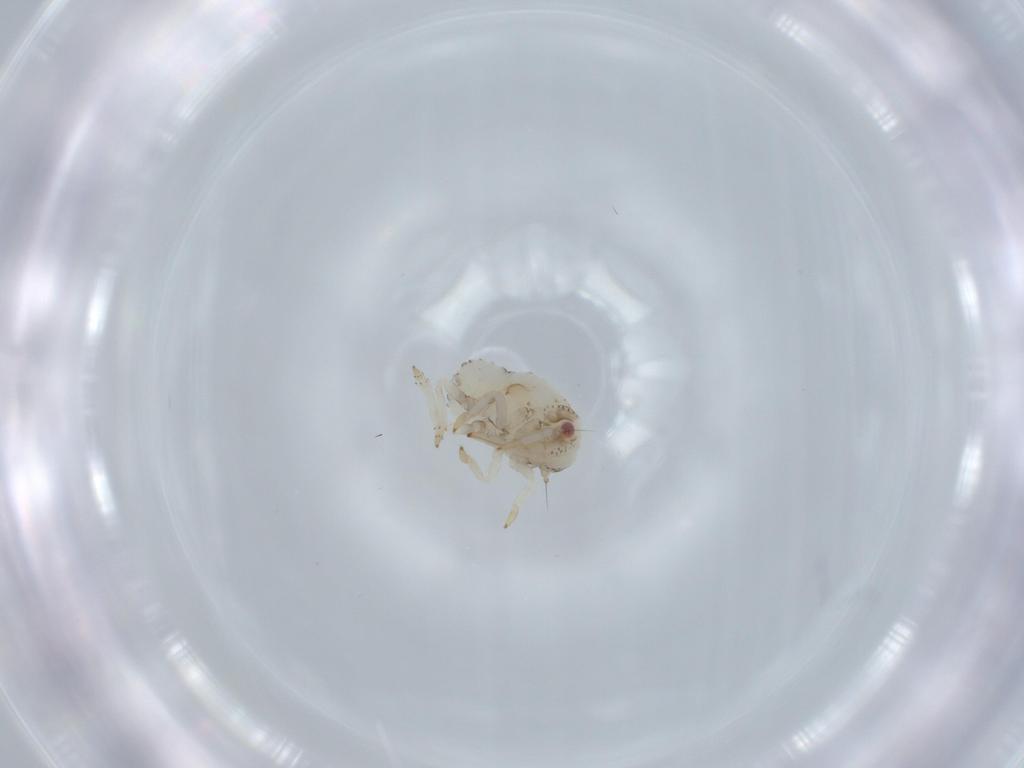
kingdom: Animalia
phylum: Arthropoda
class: Insecta
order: Hemiptera
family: Acanaloniidae
